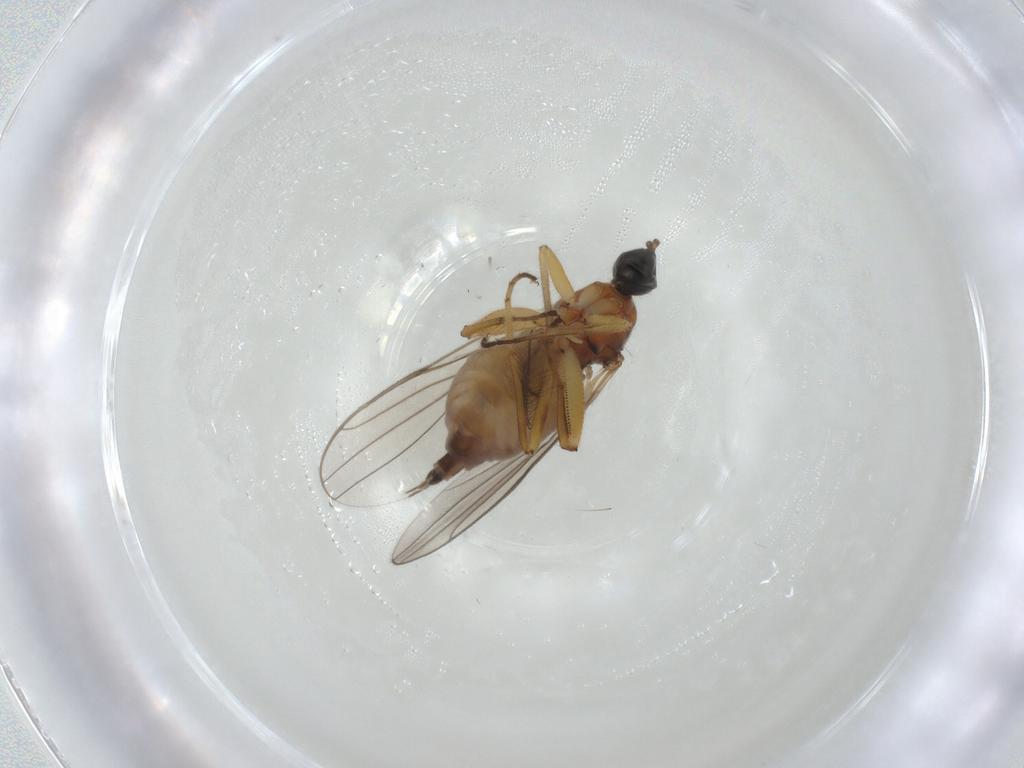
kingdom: Animalia
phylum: Arthropoda
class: Insecta
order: Diptera
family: Hybotidae
